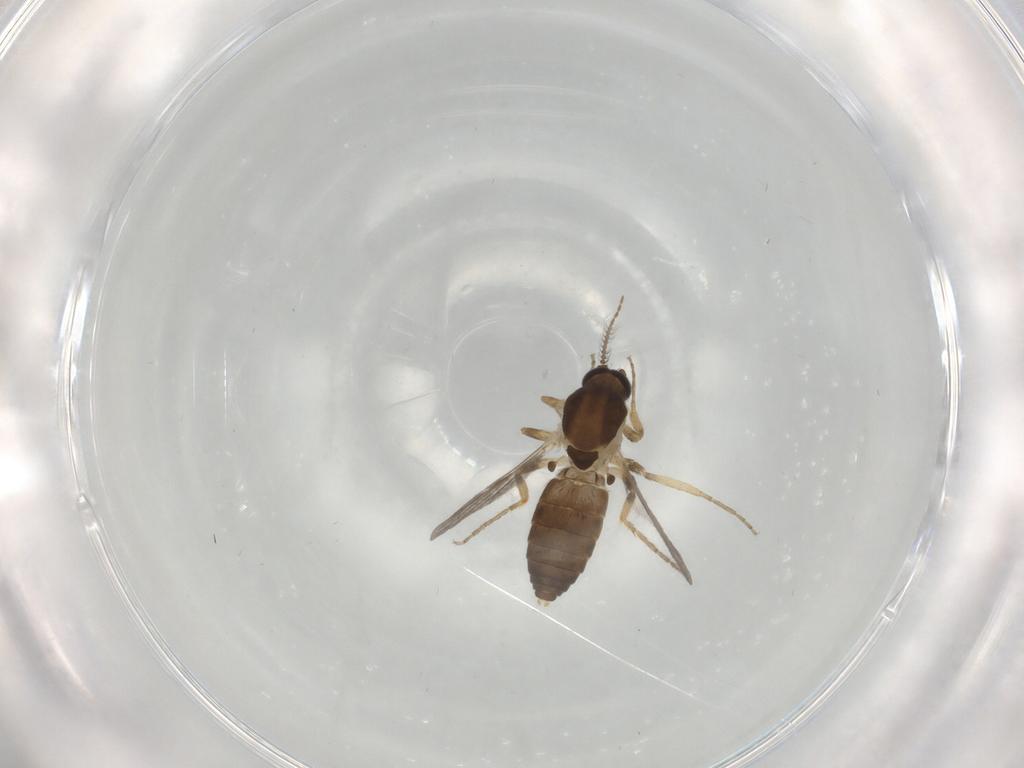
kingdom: Animalia
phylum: Arthropoda
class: Insecta
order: Diptera
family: Ceratopogonidae
